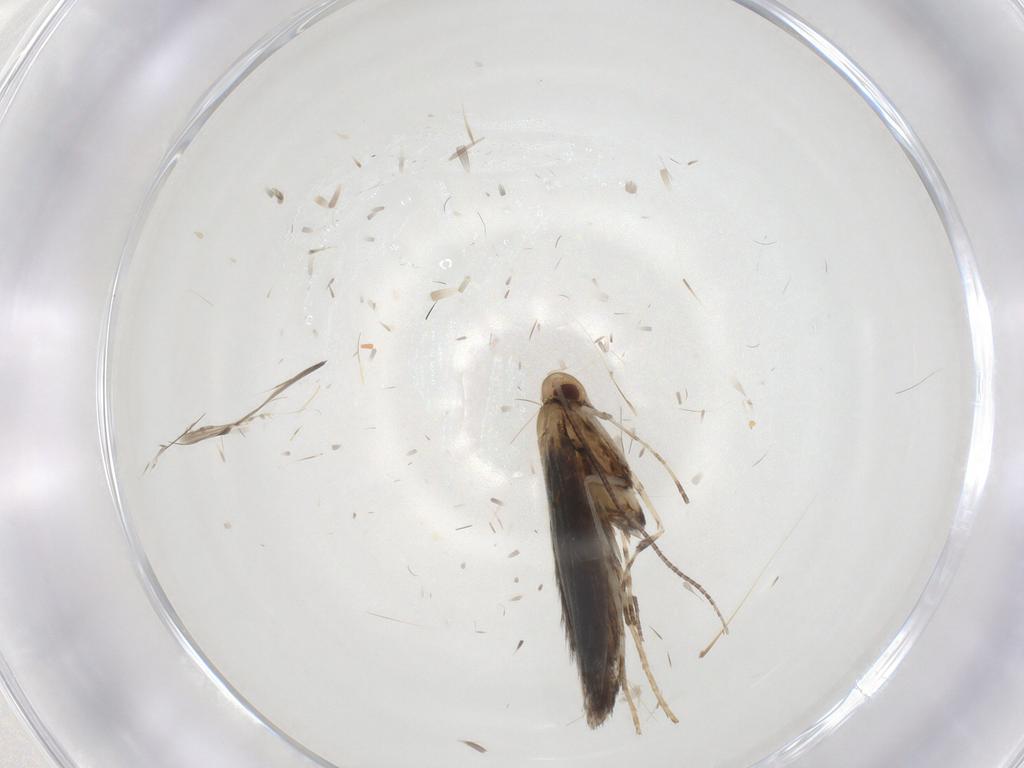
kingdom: Animalia
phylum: Arthropoda
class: Insecta
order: Lepidoptera
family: Gracillariidae
